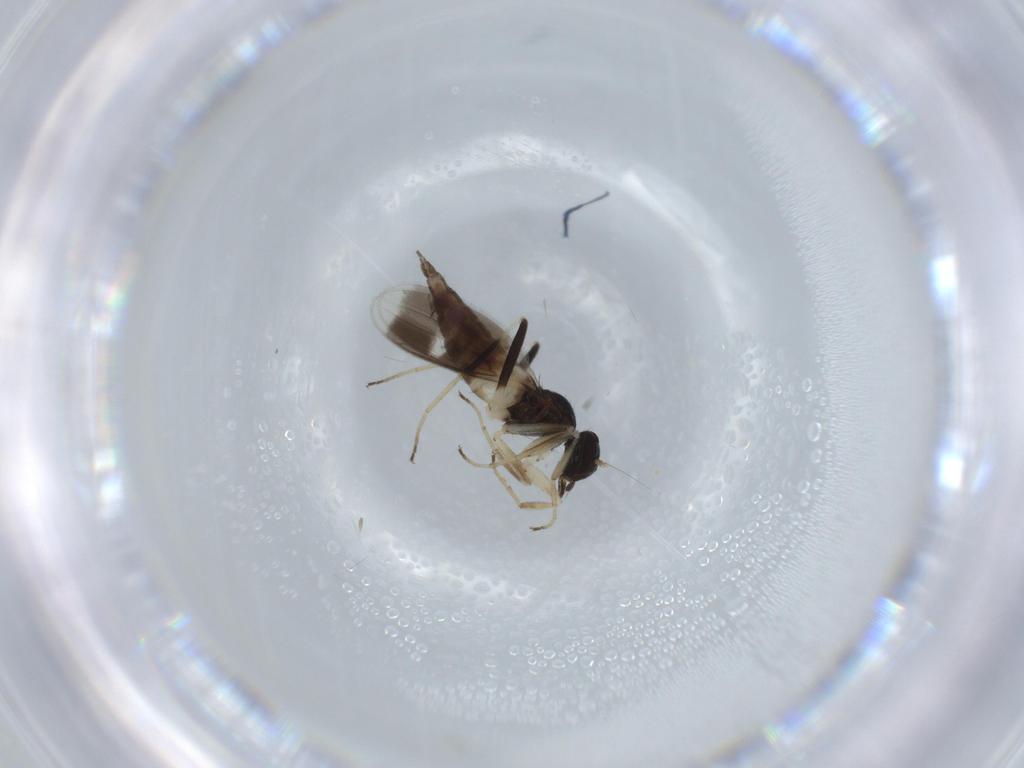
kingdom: Animalia
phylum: Arthropoda
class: Insecta
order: Diptera
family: Hybotidae
